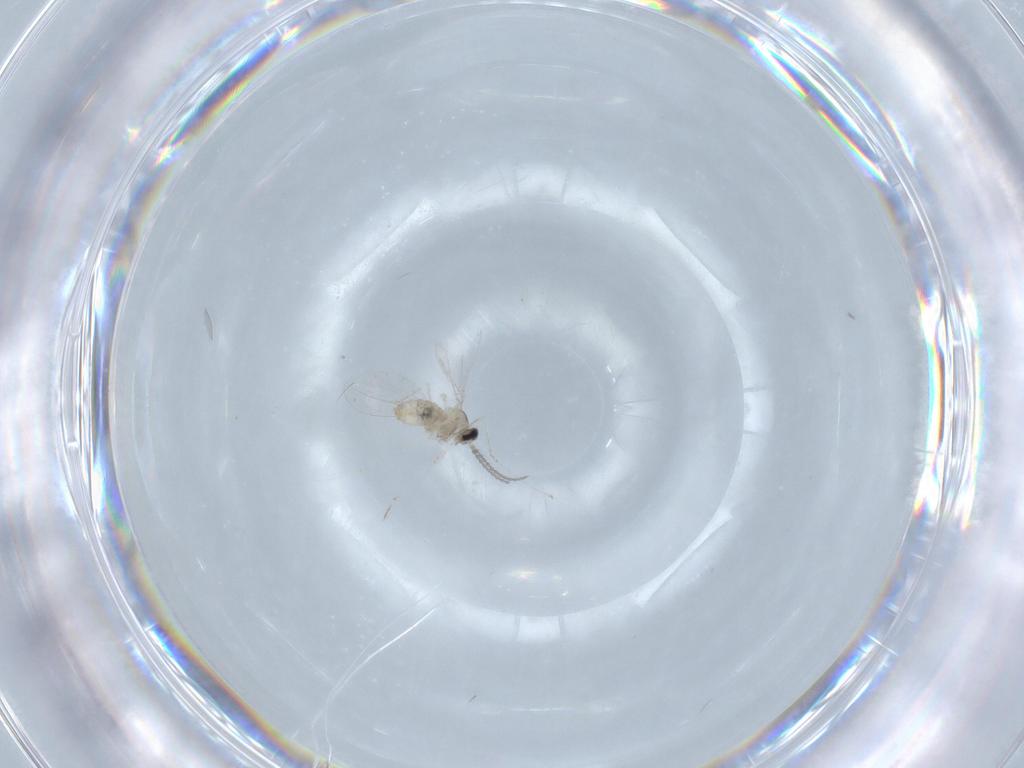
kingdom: Animalia
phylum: Arthropoda
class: Insecta
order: Diptera
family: Cecidomyiidae
